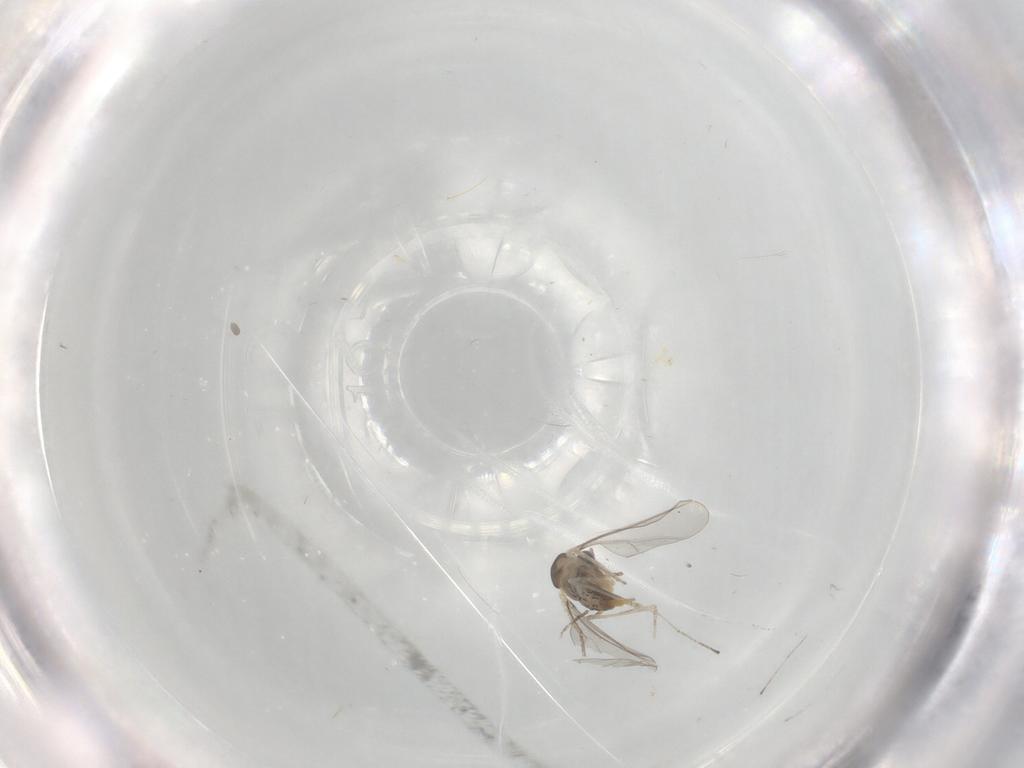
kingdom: Animalia
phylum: Arthropoda
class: Insecta
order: Diptera
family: Cecidomyiidae
